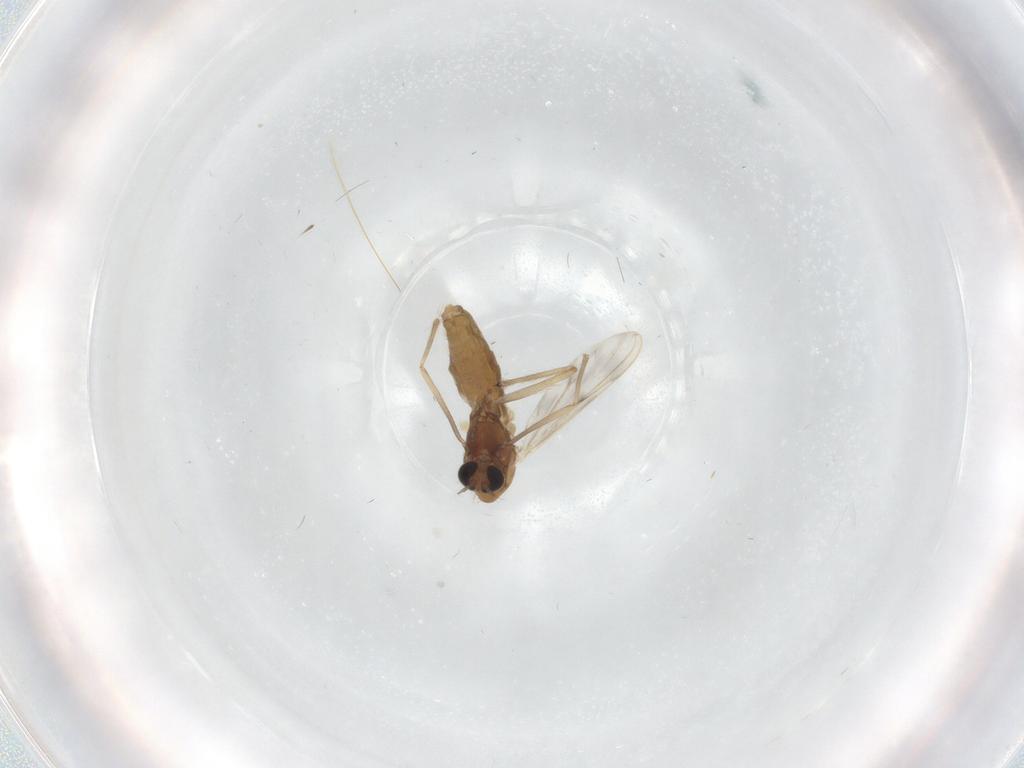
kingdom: Animalia
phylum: Arthropoda
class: Insecta
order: Diptera
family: Chironomidae
